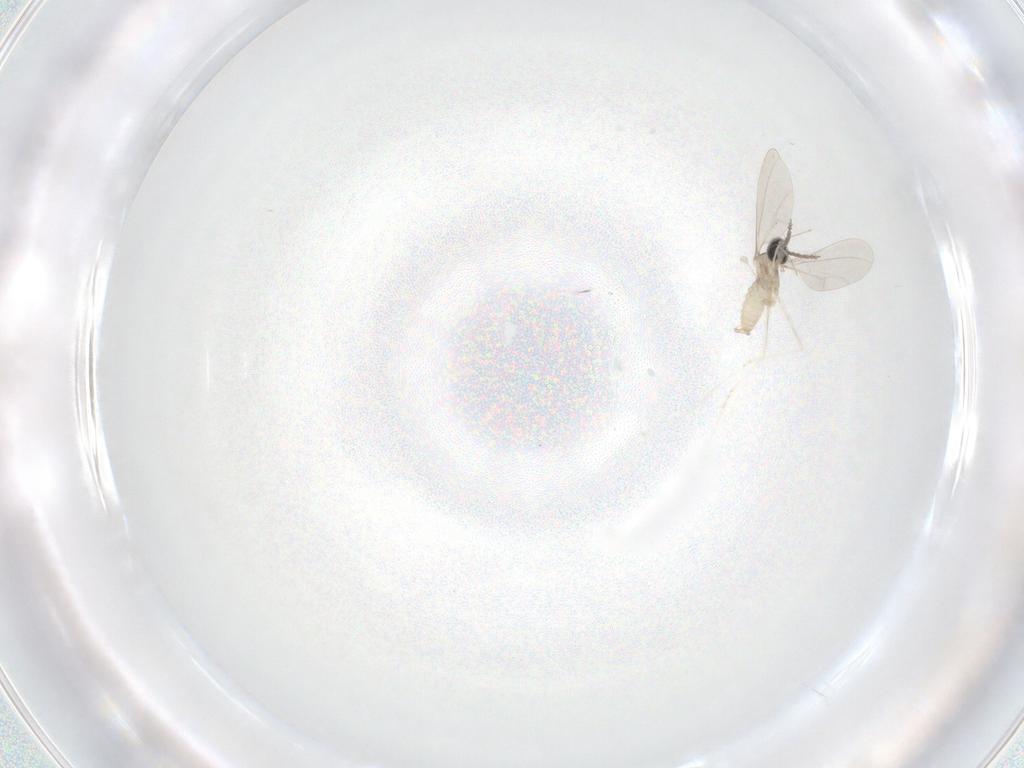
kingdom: Animalia
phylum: Arthropoda
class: Insecta
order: Diptera
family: Cecidomyiidae
